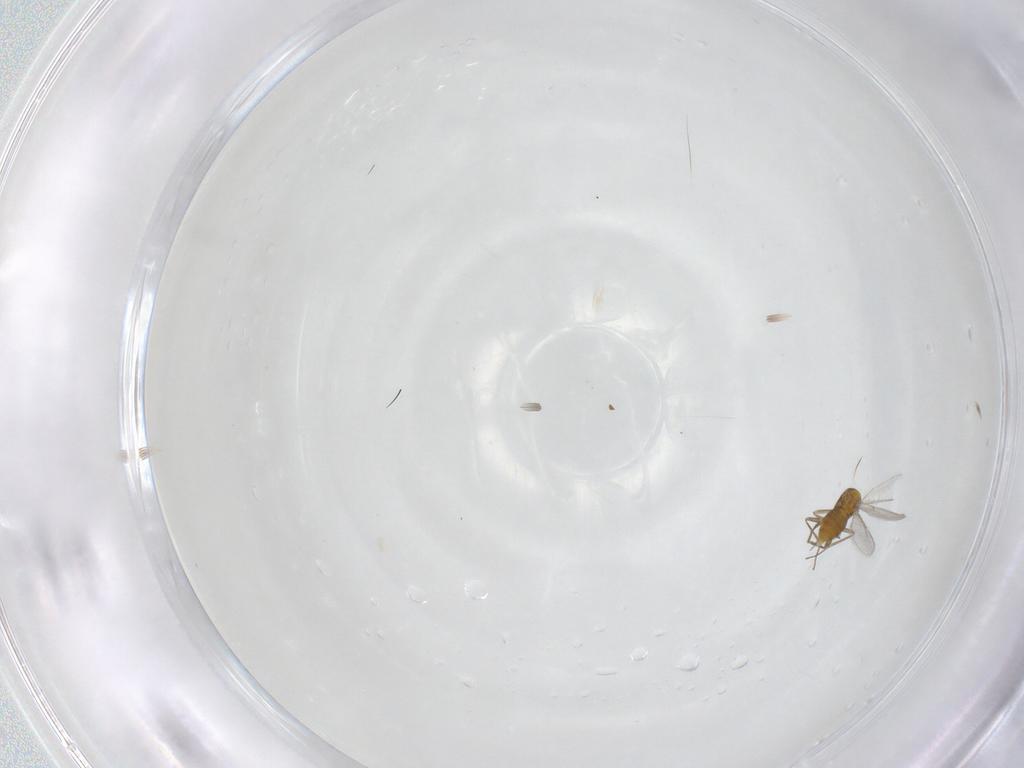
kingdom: Animalia
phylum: Arthropoda
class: Insecta
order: Hymenoptera
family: Aphelinidae
